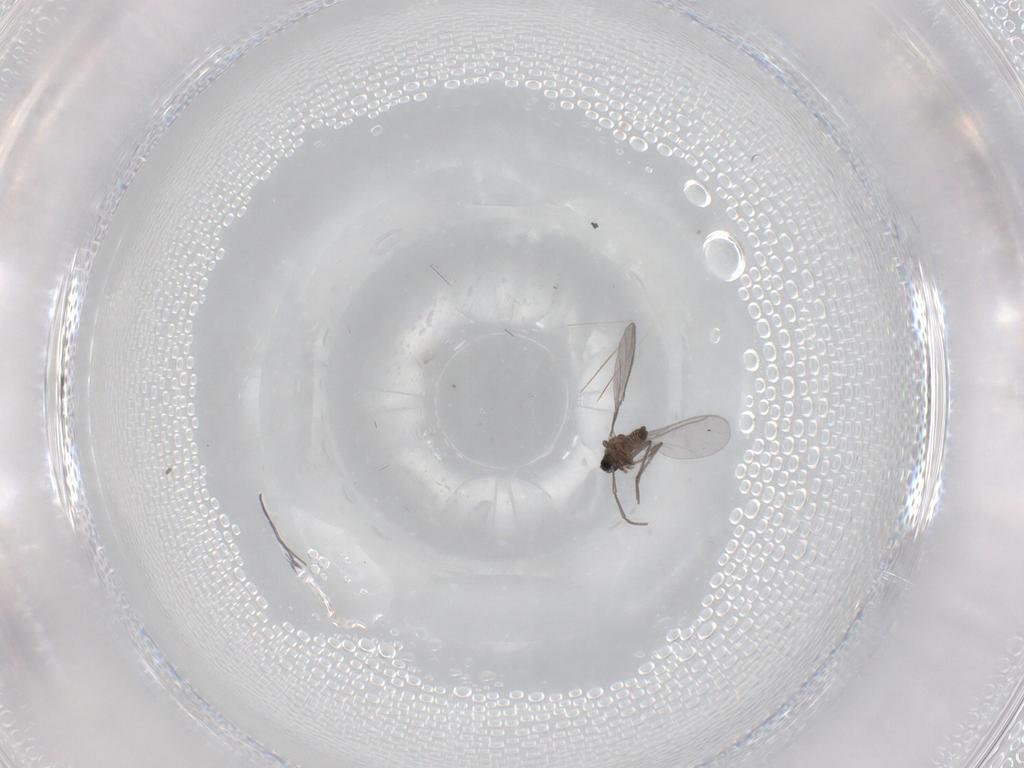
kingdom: Animalia
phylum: Arthropoda
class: Insecta
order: Diptera
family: Sciaridae
